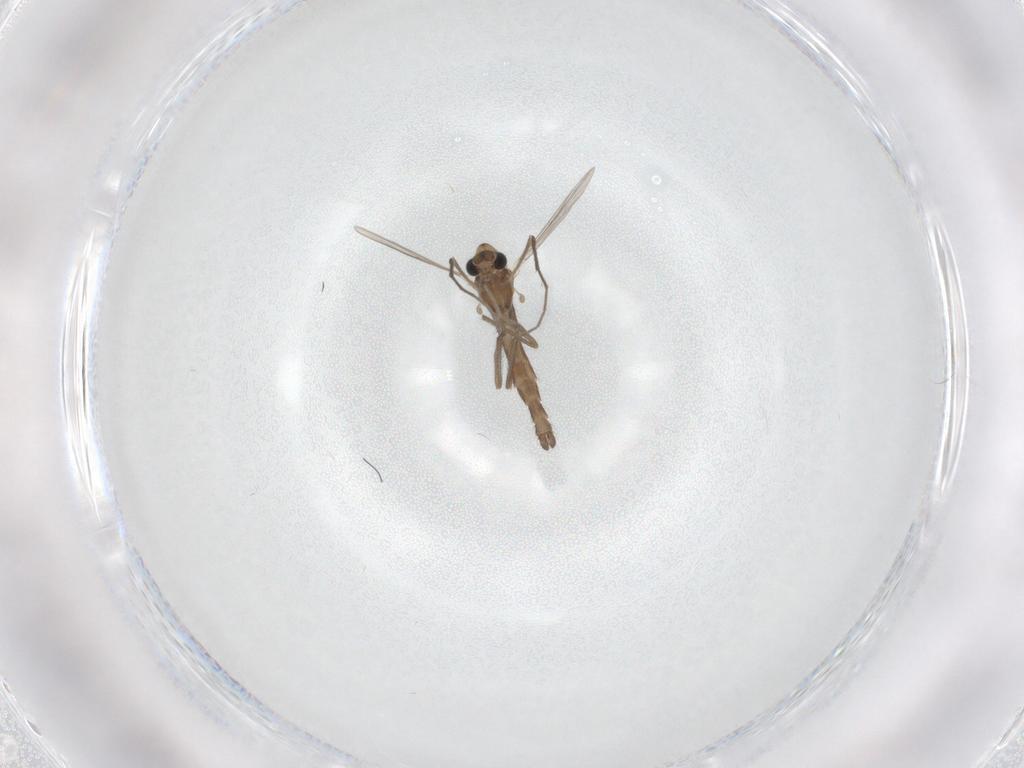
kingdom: Animalia
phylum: Arthropoda
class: Insecta
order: Diptera
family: Chironomidae
